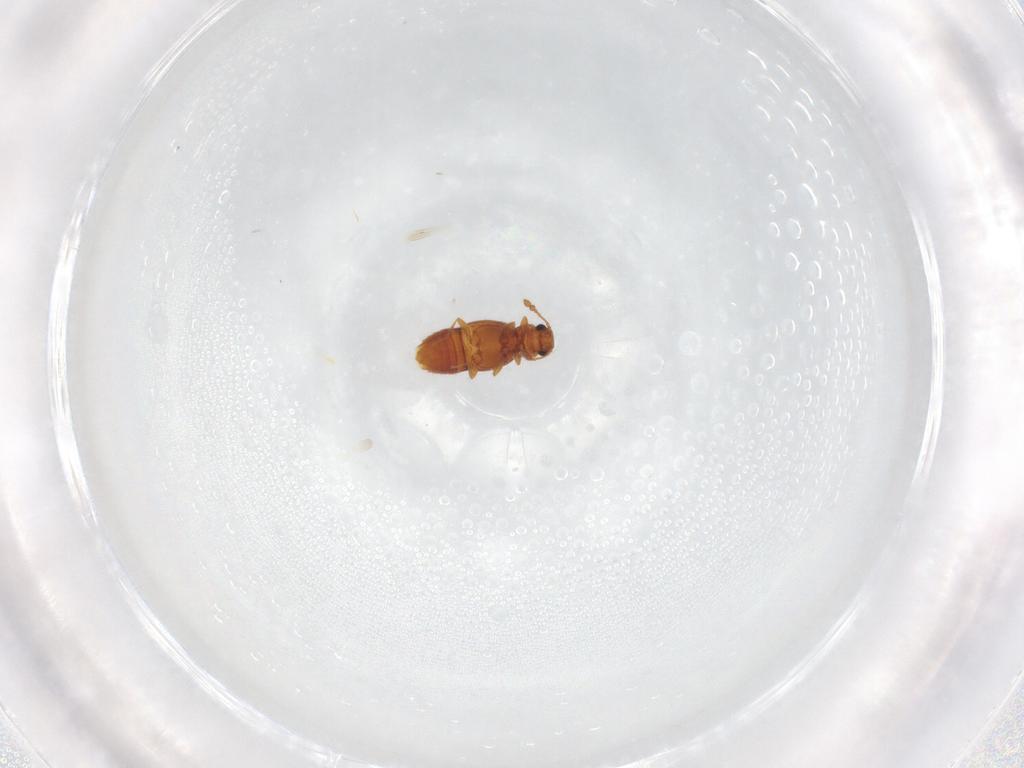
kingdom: Animalia
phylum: Arthropoda
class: Insecta
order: Coleoptera
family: Staphylinidae
